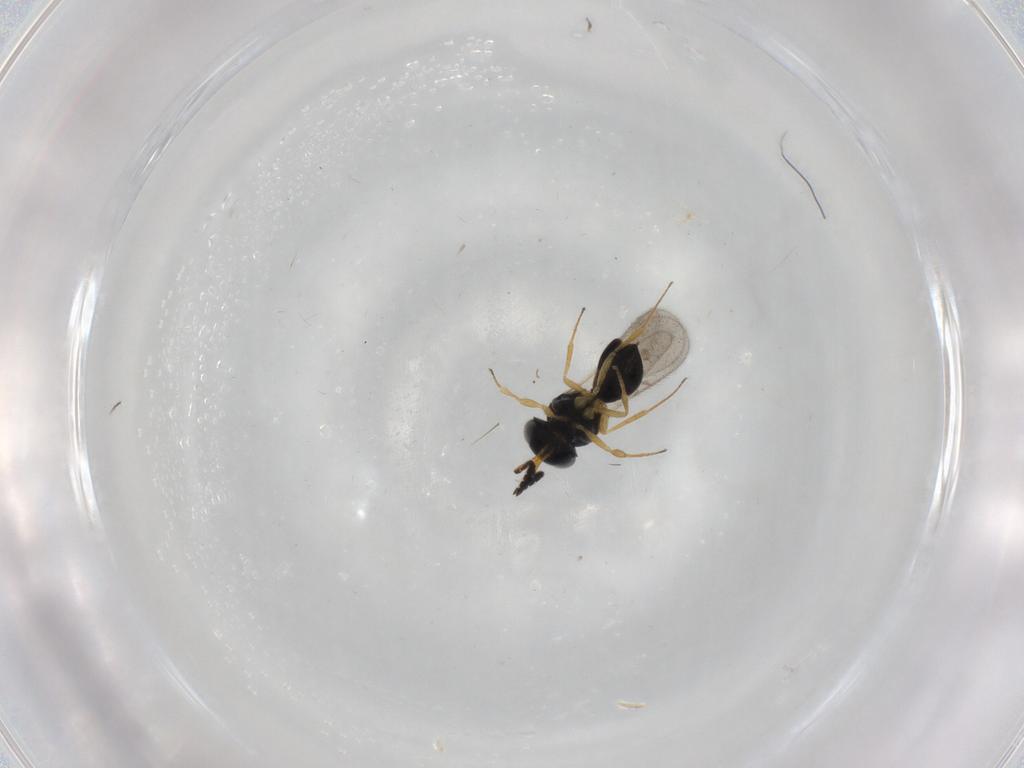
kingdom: Animalia
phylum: Arthropoda
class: Insecta
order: Hymenoptera
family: Scelionidae
